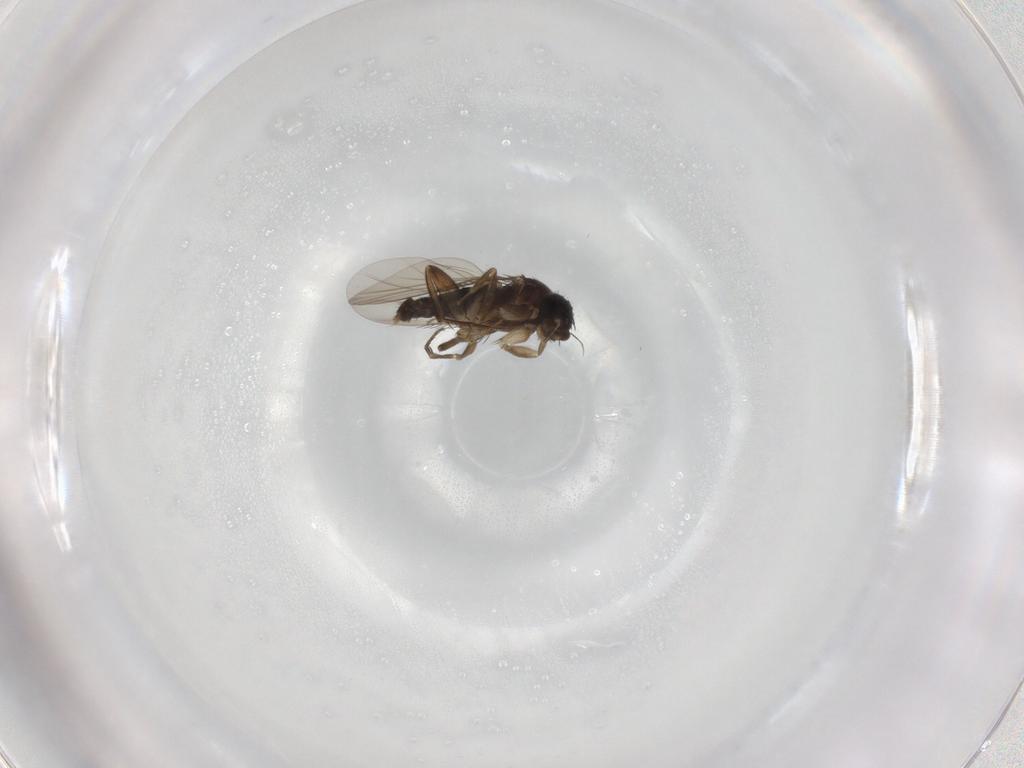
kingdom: Animalia
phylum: Arthropoda
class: Insecta
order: Diptera
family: Phoridae
